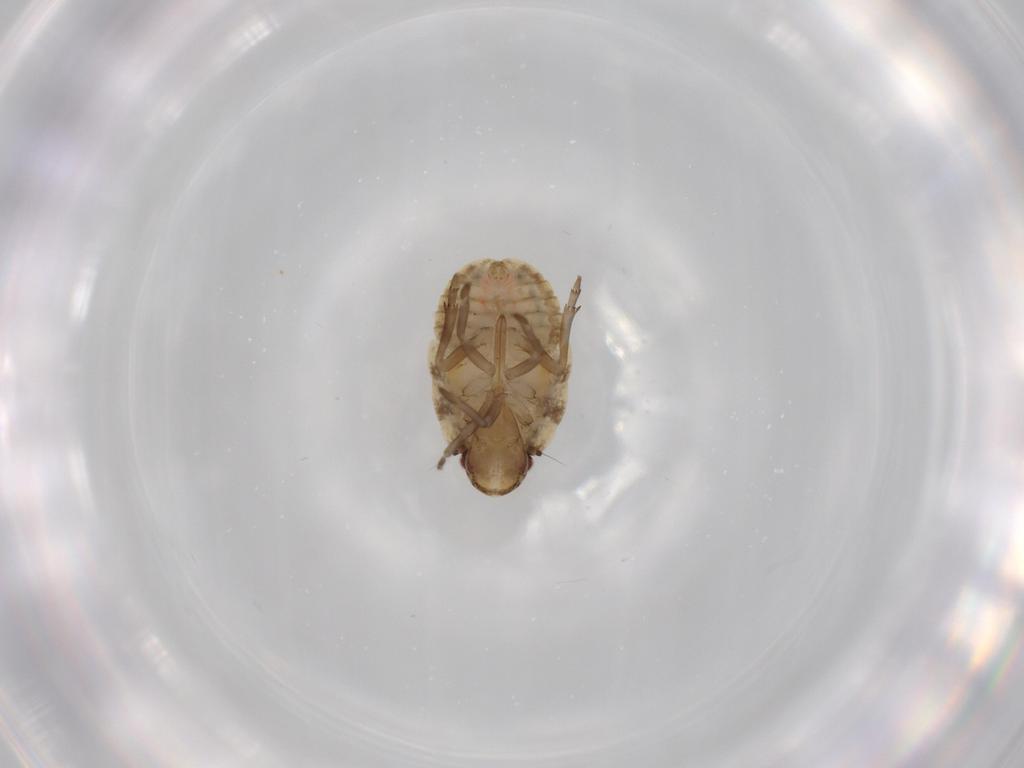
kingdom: Animalia
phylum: Arthropoda
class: Insecta
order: Hemiptera
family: Flatidae
